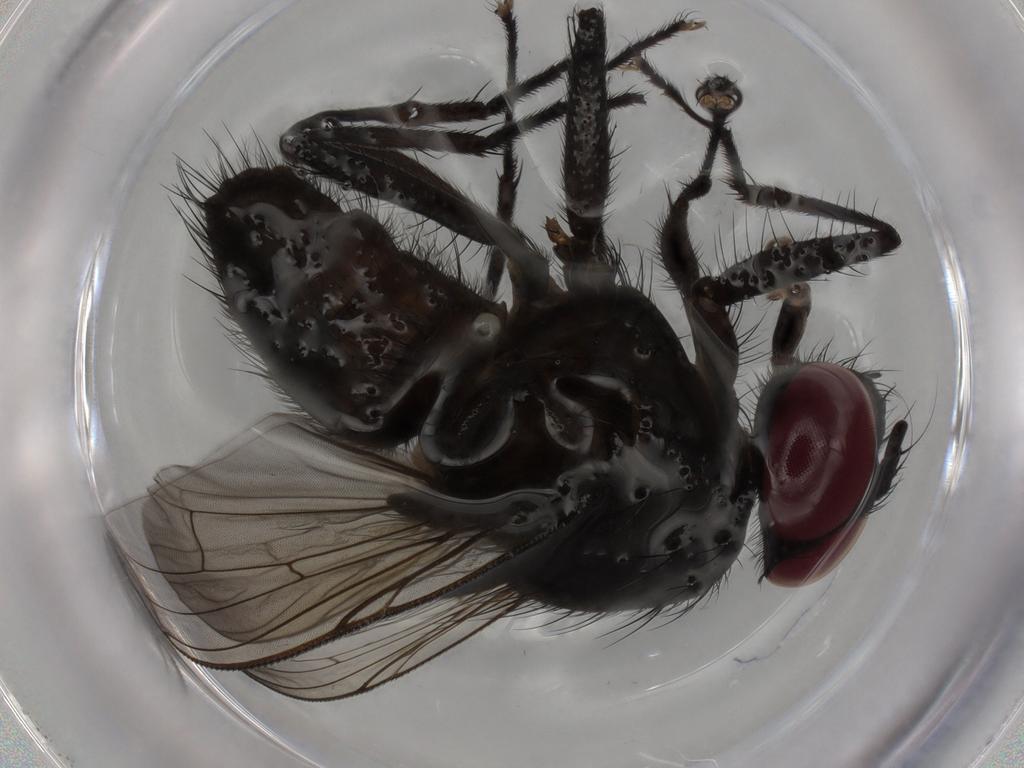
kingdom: Animalia
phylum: Arthropoda
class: Insecta
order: Diptera
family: Muscidae
